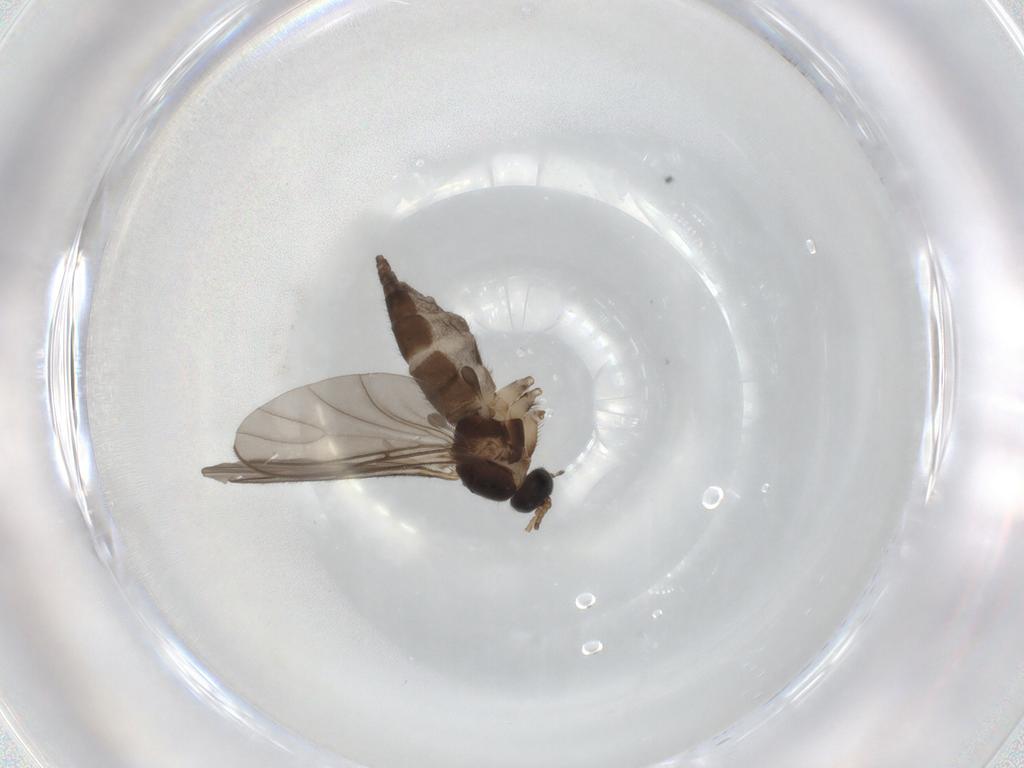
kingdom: Animalia
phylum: Arthropoda
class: Insecta
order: Diptera
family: Sciaridae
